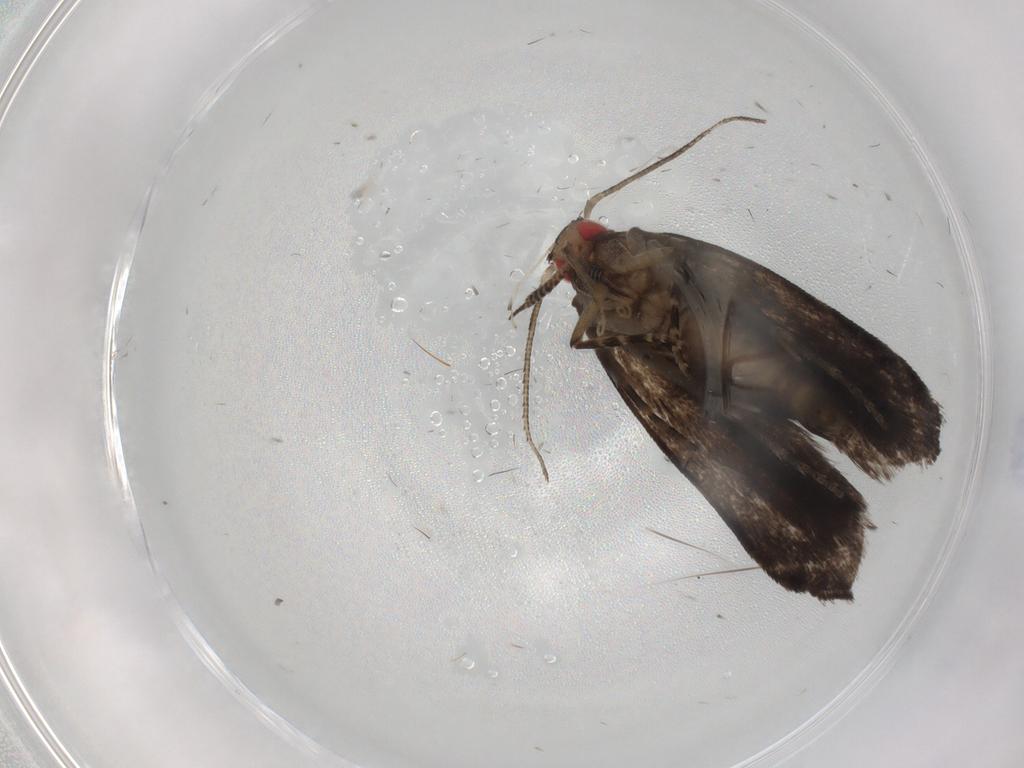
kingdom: Animalia
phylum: Arthropoda
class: Insecta
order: Lepidoptera
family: Gelechiidae
